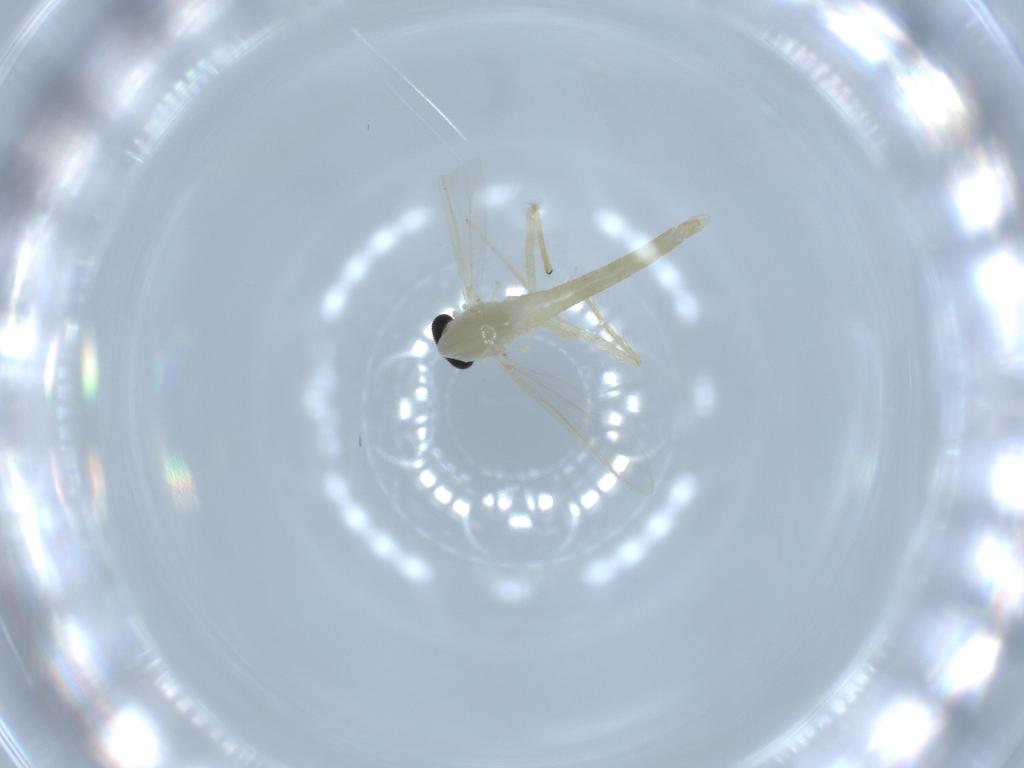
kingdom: Animalia
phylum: Arthropoda
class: Insecta
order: Diptera
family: Chironomidae
